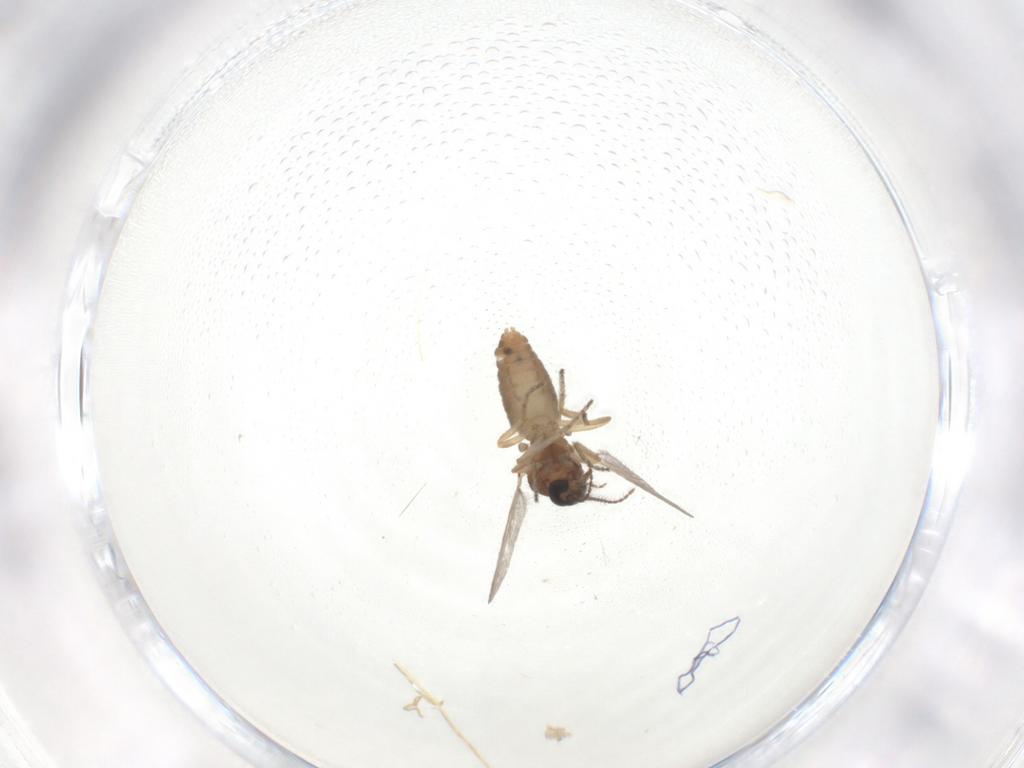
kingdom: Animalia
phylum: Arthropoda
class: Insecta
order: Diptera
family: Ceratopogonidae
